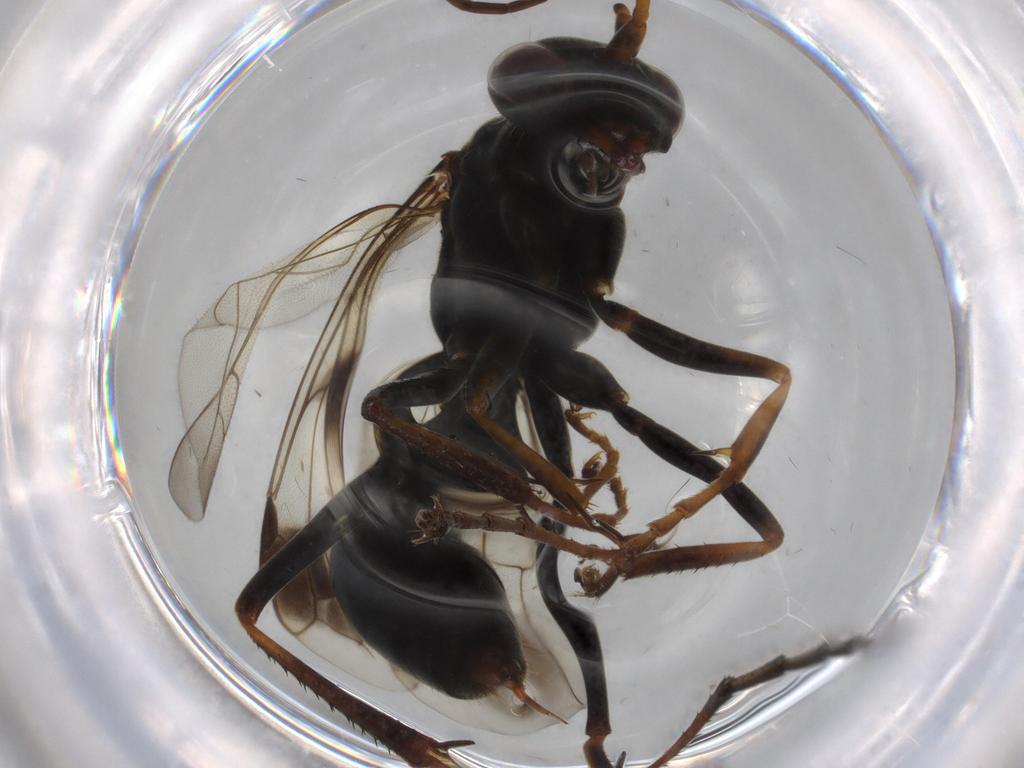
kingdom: Animalia
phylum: Arthropoda
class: Insecta
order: Hymenoptera
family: Pompilidae
